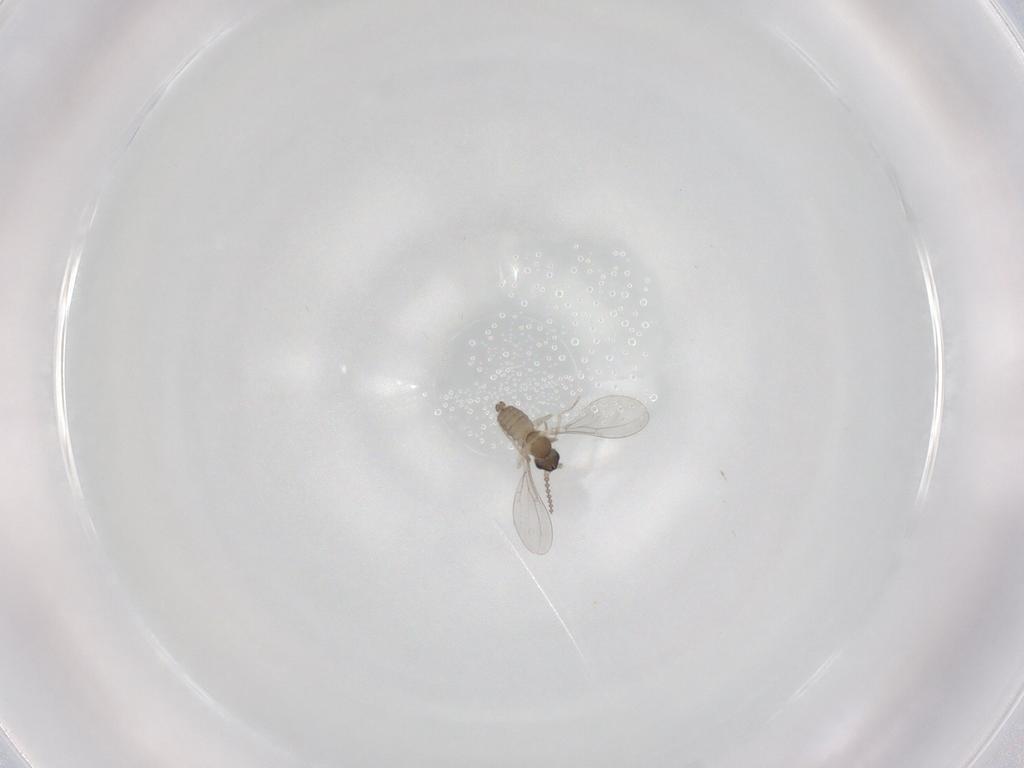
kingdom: Animalia
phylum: Arthropoda
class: Insecta
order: Diptera
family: Cecidomyiidae
